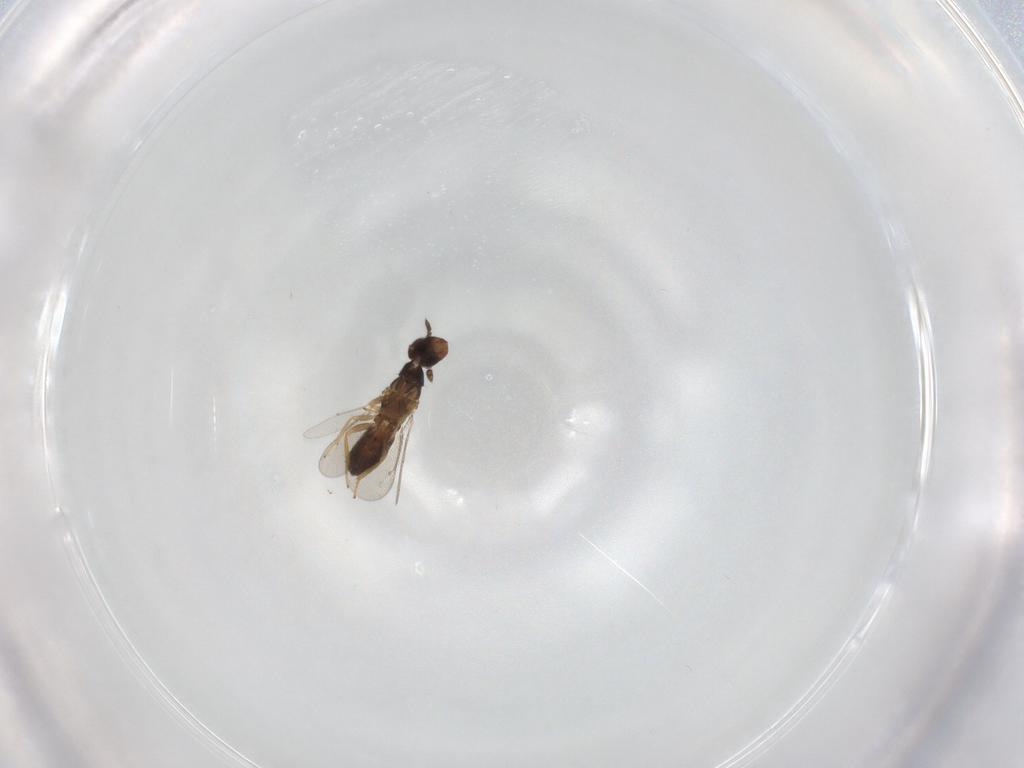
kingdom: Animalia
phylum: Arthropoda
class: Insecta
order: Hymenoptera
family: Eulophidae
